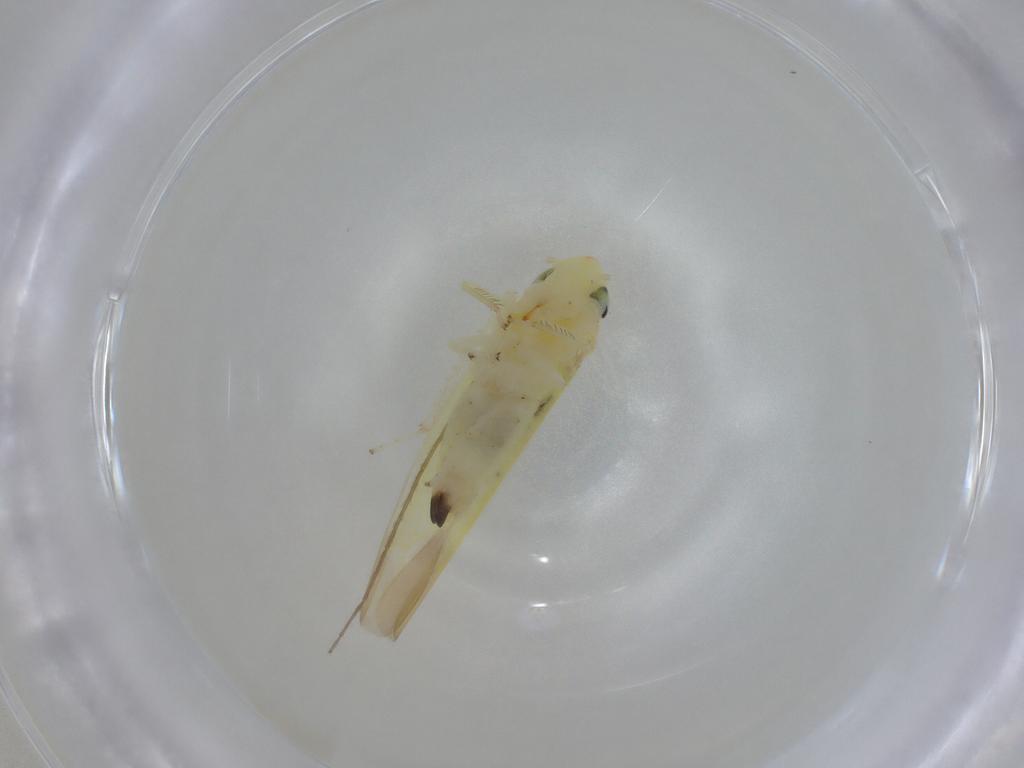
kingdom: Animalia
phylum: Arthropoda
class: Insecta
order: Hemiptera
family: Cicadellidae
